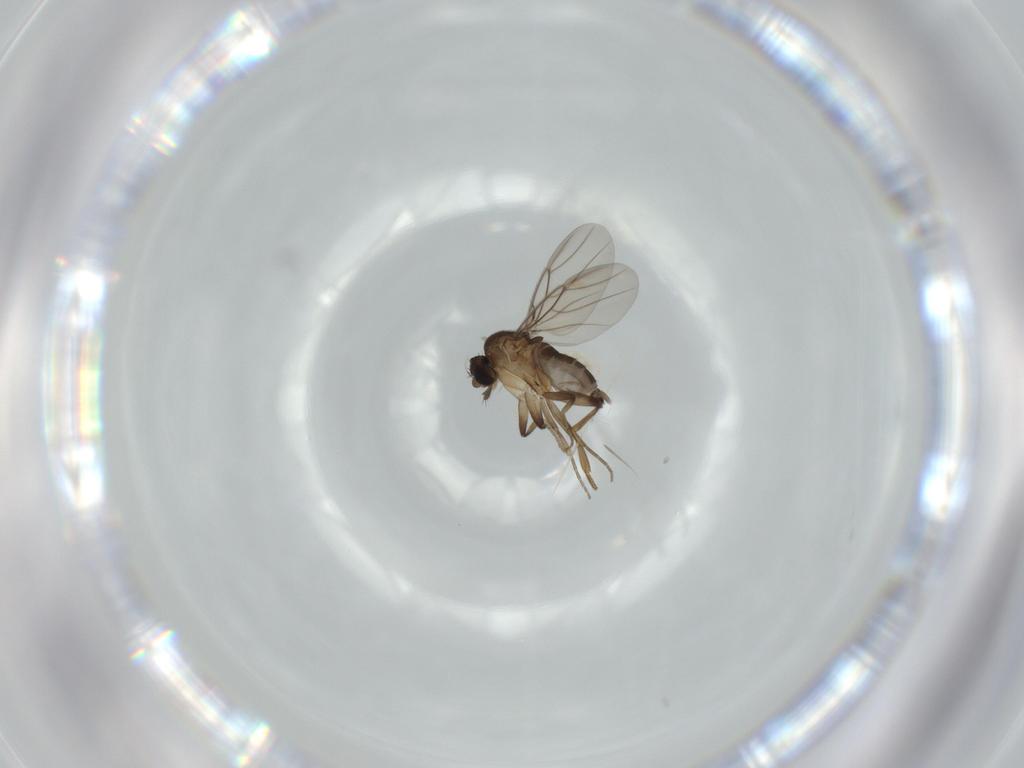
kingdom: Animalia
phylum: Arthropoda
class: Insecta
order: Diptera
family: Phoridae
